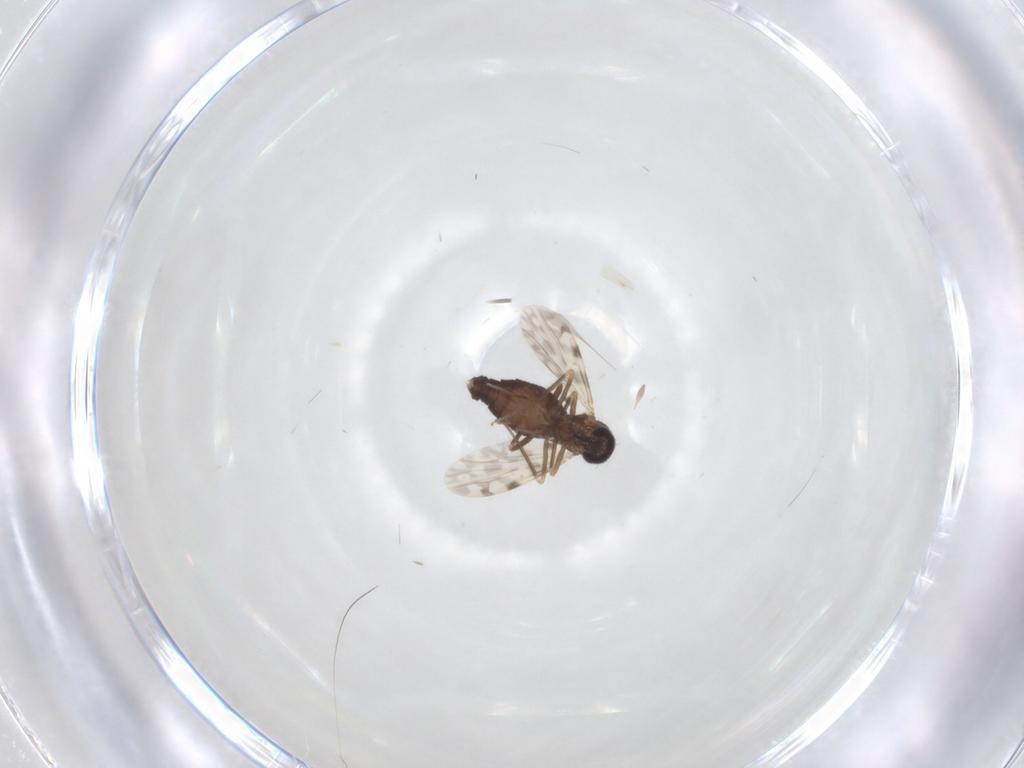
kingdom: Animalia
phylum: Arthropoda
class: Insecta
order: Diptera
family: Ceratopogonidae
